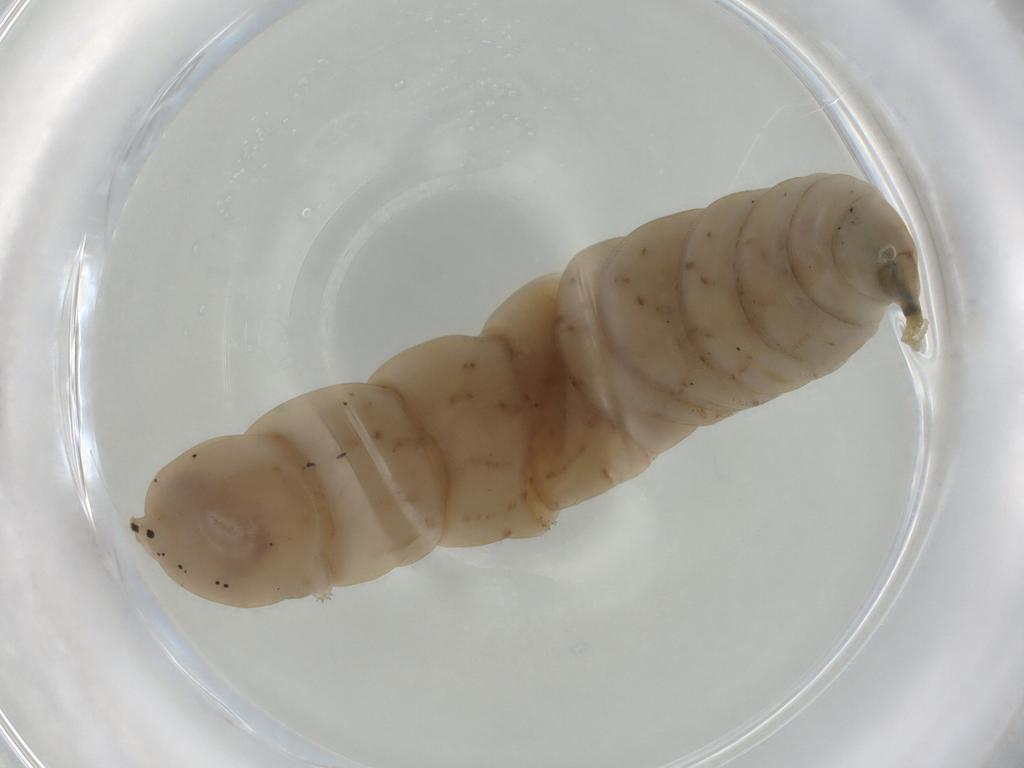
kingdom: Animalia
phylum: Arthropoda
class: Insecta
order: Diptera
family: Muscidae
